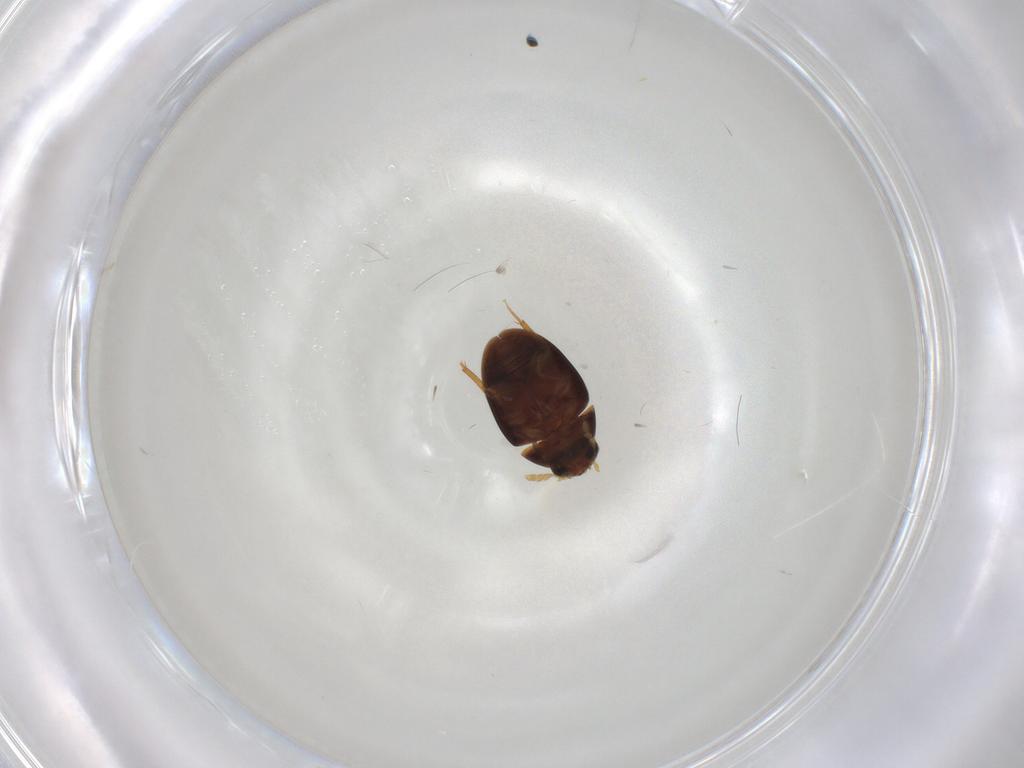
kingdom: Animalia
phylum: Arthropoda
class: Insecta
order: Coleoptera
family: Phalacridae
